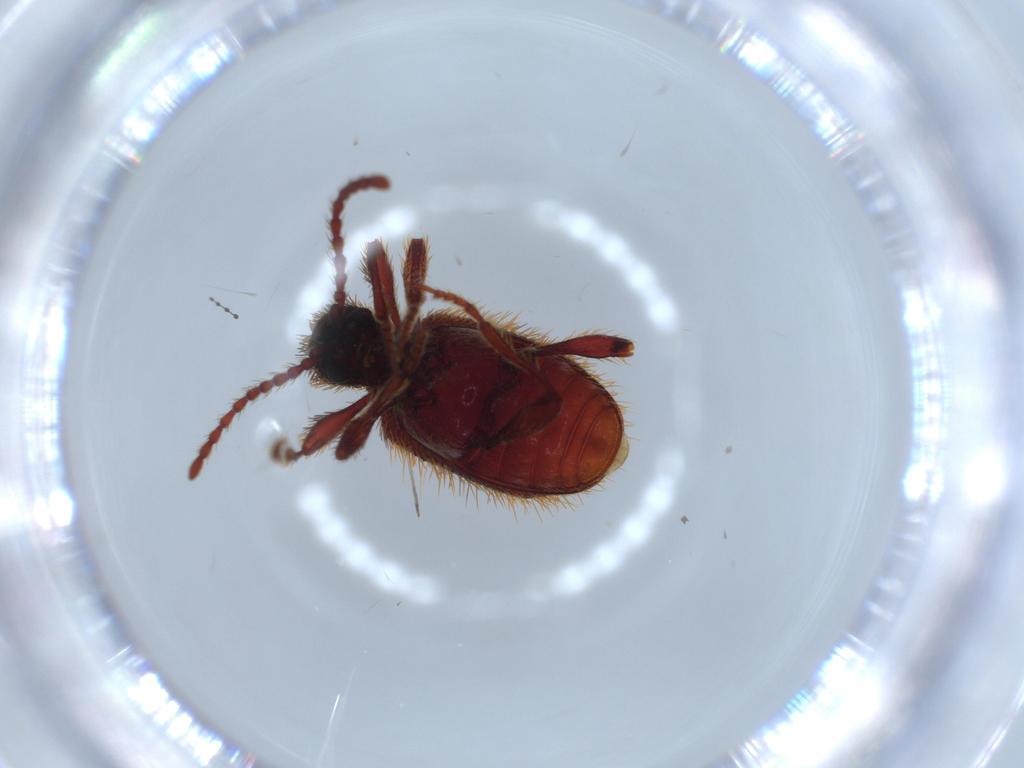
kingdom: Animalia
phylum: Arthropoda
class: Insecta
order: Coleoptera
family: Ptinidae
